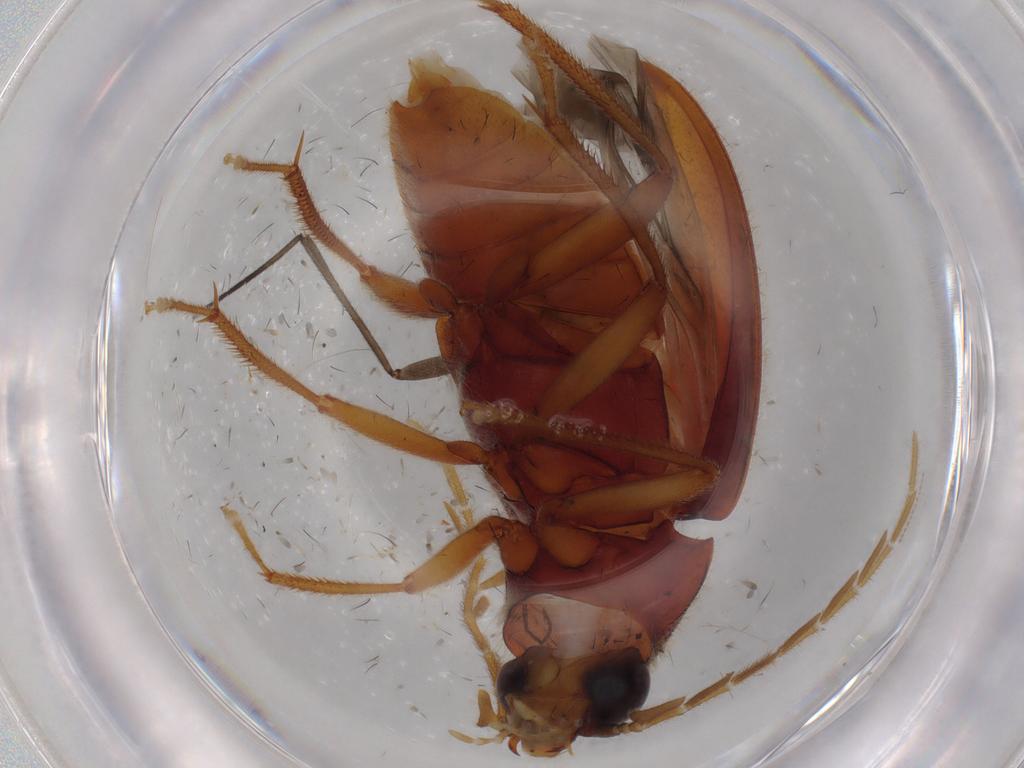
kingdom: Animalia
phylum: Arthropoda
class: Insecta
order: Coleoptera
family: Ptilodactylidae
